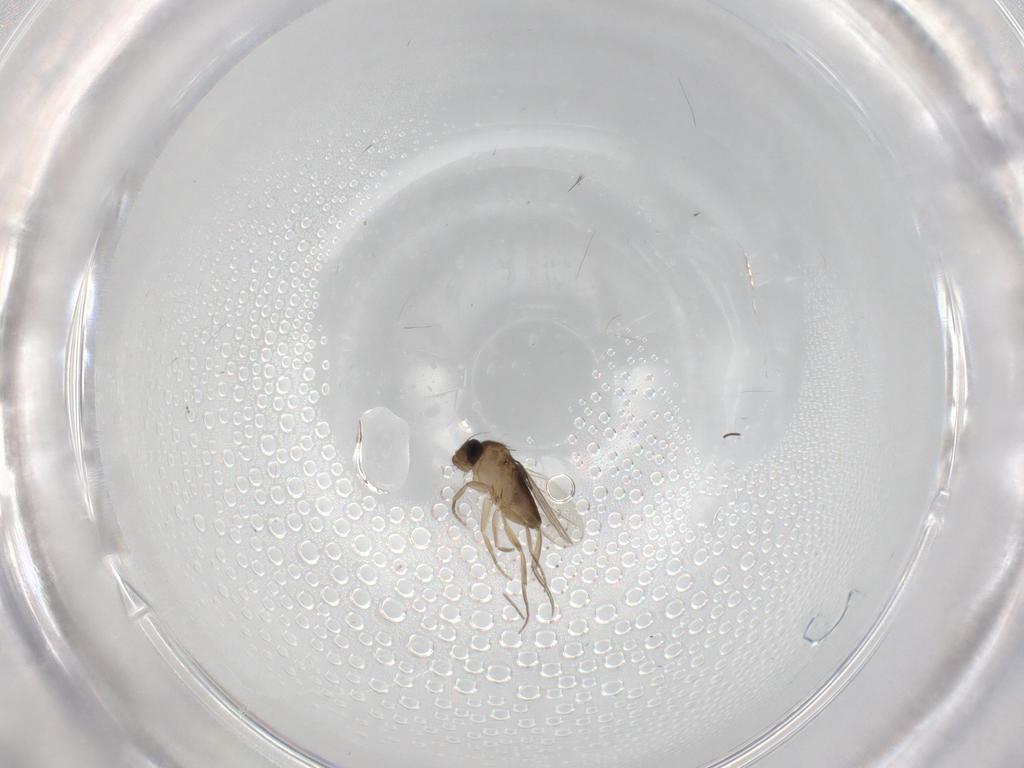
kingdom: Animalia
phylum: Arthropoda
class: Insecta
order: Diptera
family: Phoridae
